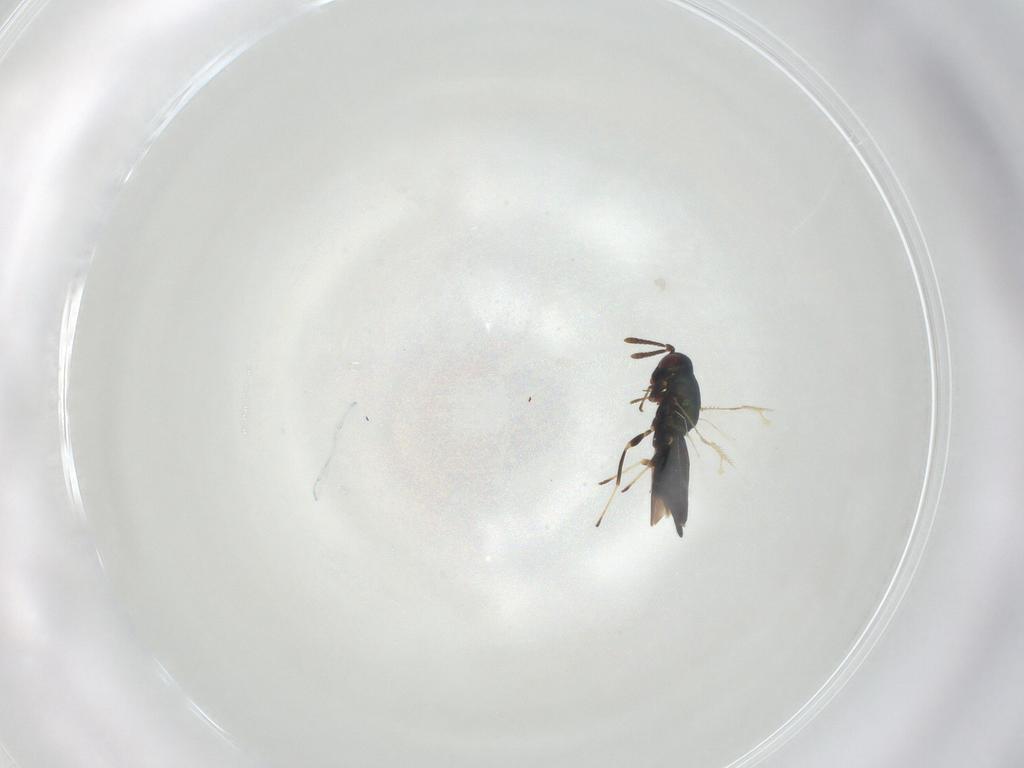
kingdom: Animalia
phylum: Arthropoda
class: Insecta
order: Hymenoptera
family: Pteromalidae
